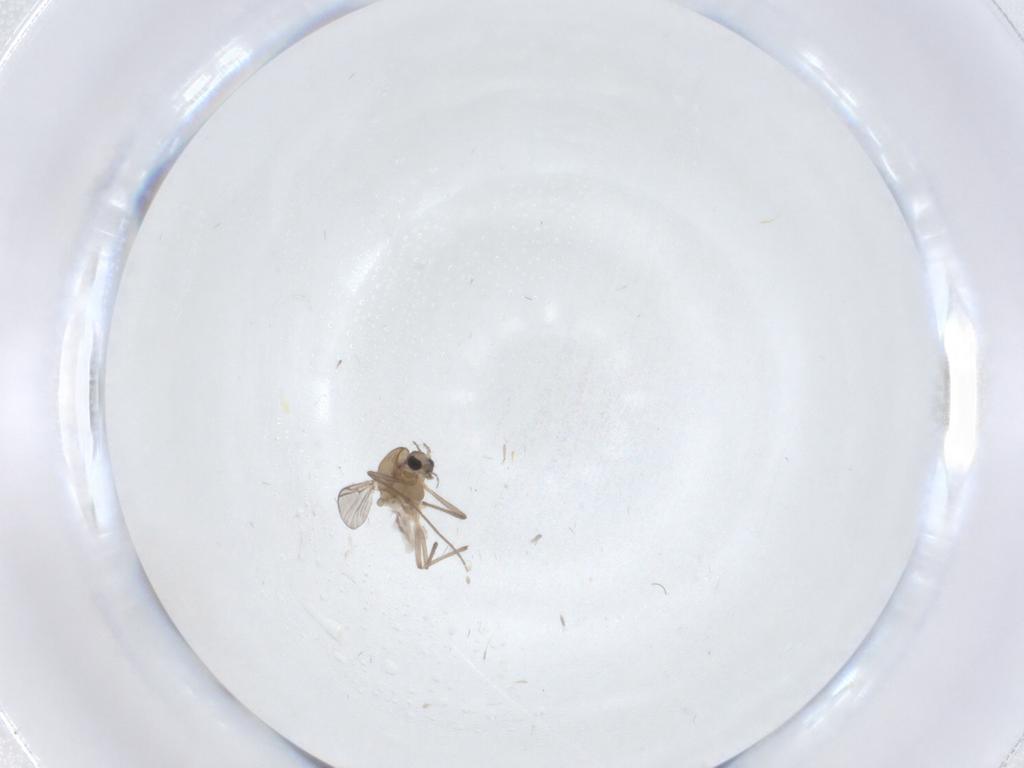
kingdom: Animalia
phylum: Arthropoda
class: Insecta
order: Diptera
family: Chironomidae
